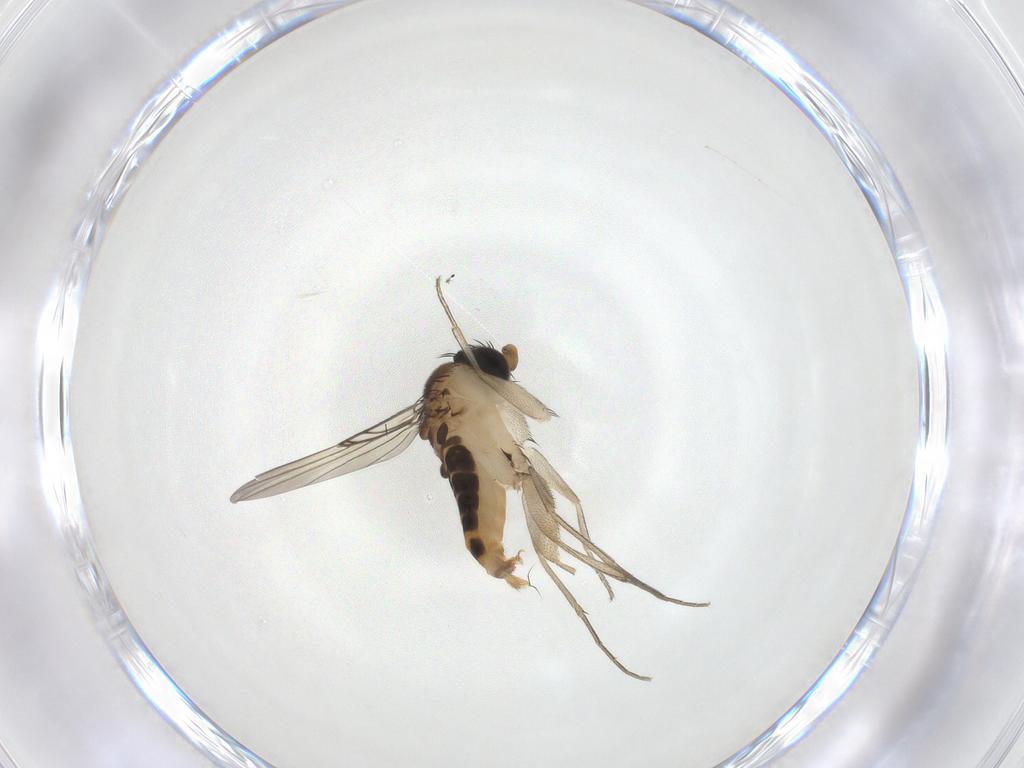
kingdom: Animalia
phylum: Arthropoda
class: Insecta
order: Diptera
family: Phoridae
